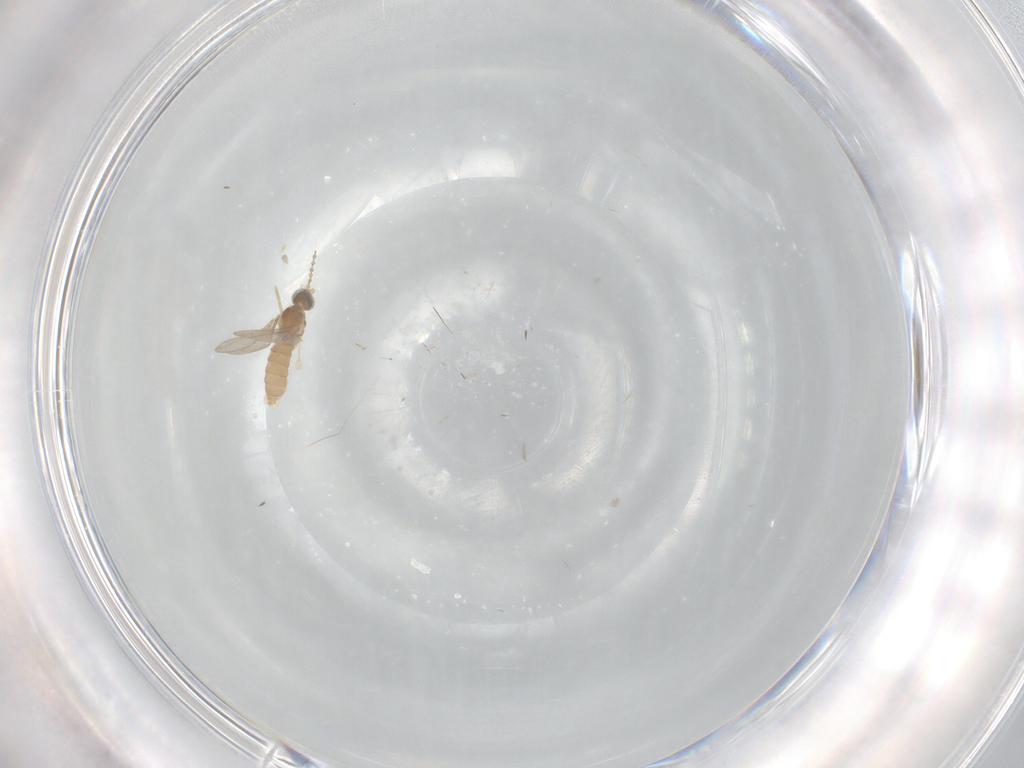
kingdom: Animalia
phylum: Arthropoda
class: Insecta
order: Diptera
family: Cecidomyiidae
